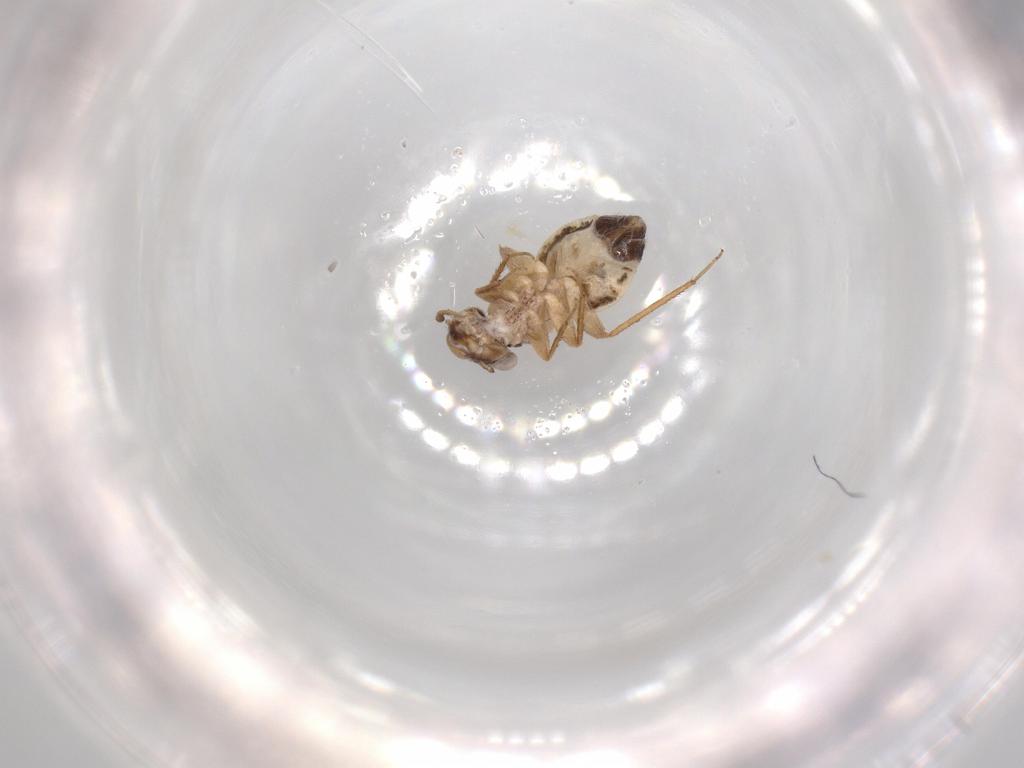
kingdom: Animalia
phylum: Arthropoda
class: Insecta
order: Psocodea
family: Lepidopsocidae
